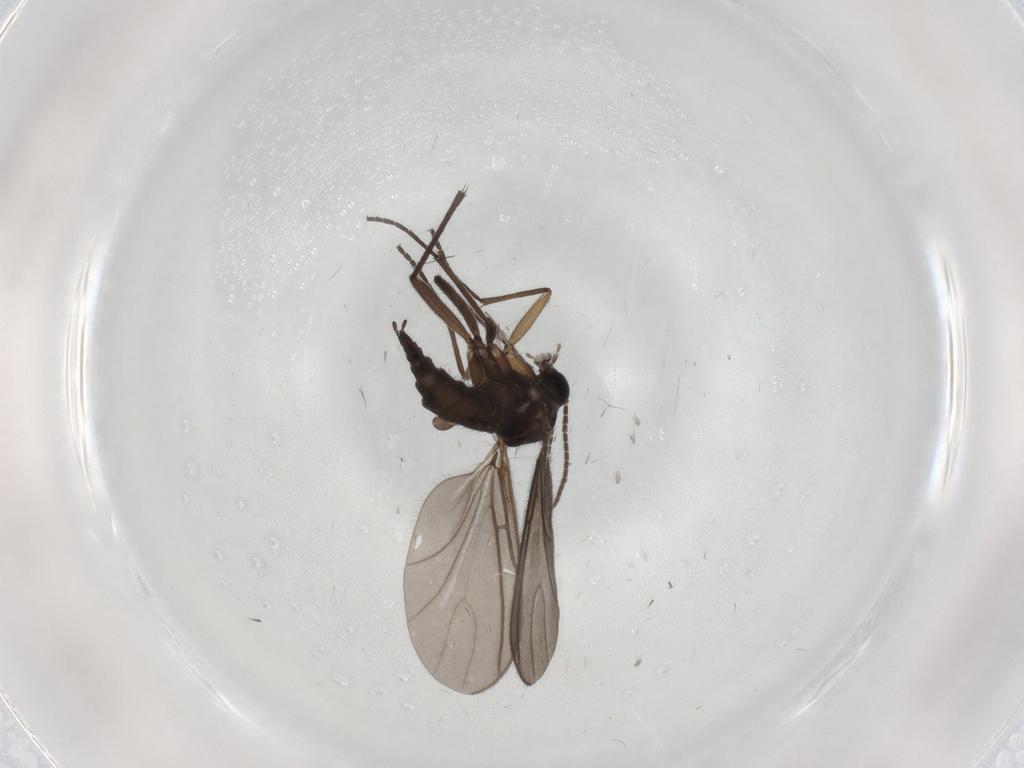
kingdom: Animalia
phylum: Arthropoda
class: Insecta
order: Diptera
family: Sciaridae
